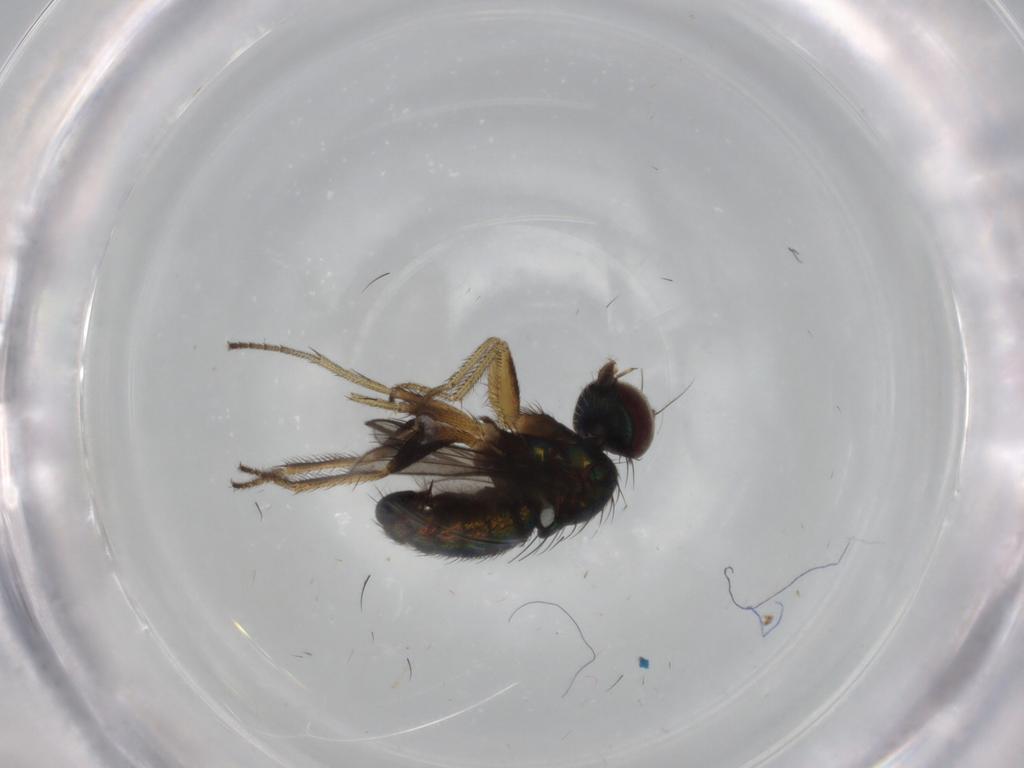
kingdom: Animalia
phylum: Arthropoda
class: Insecta
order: Diptera
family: Dolichopodidae
